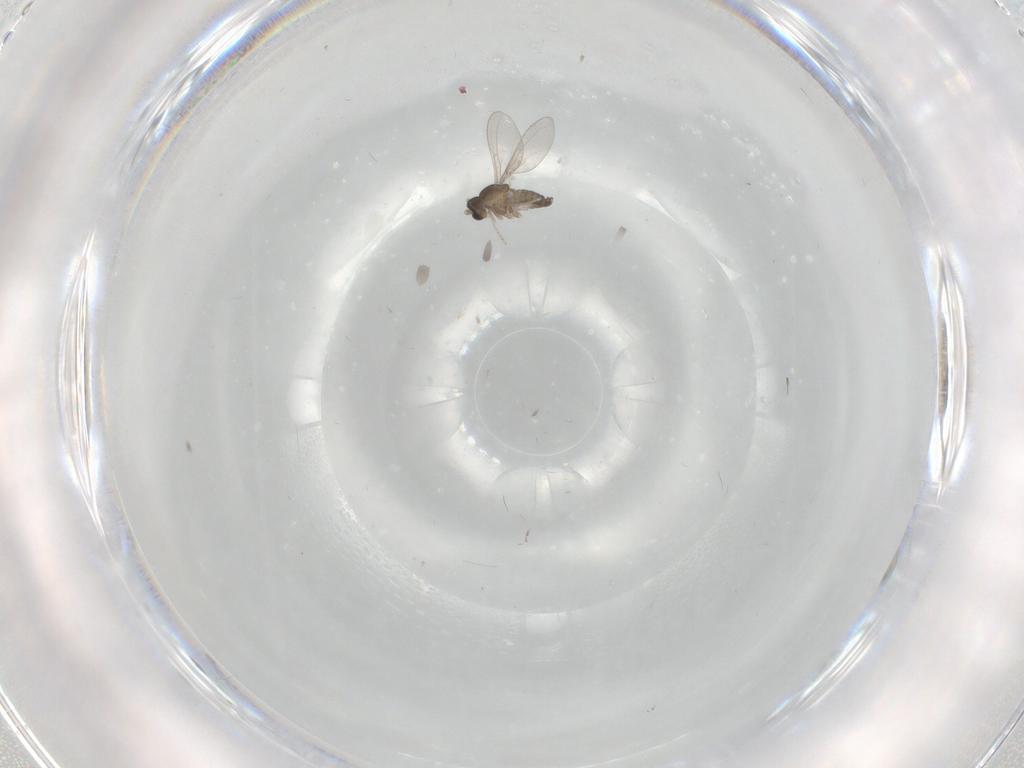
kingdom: Animalia
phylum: Arthropoda
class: Insecta
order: Diptera
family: Cecidomyiidae
